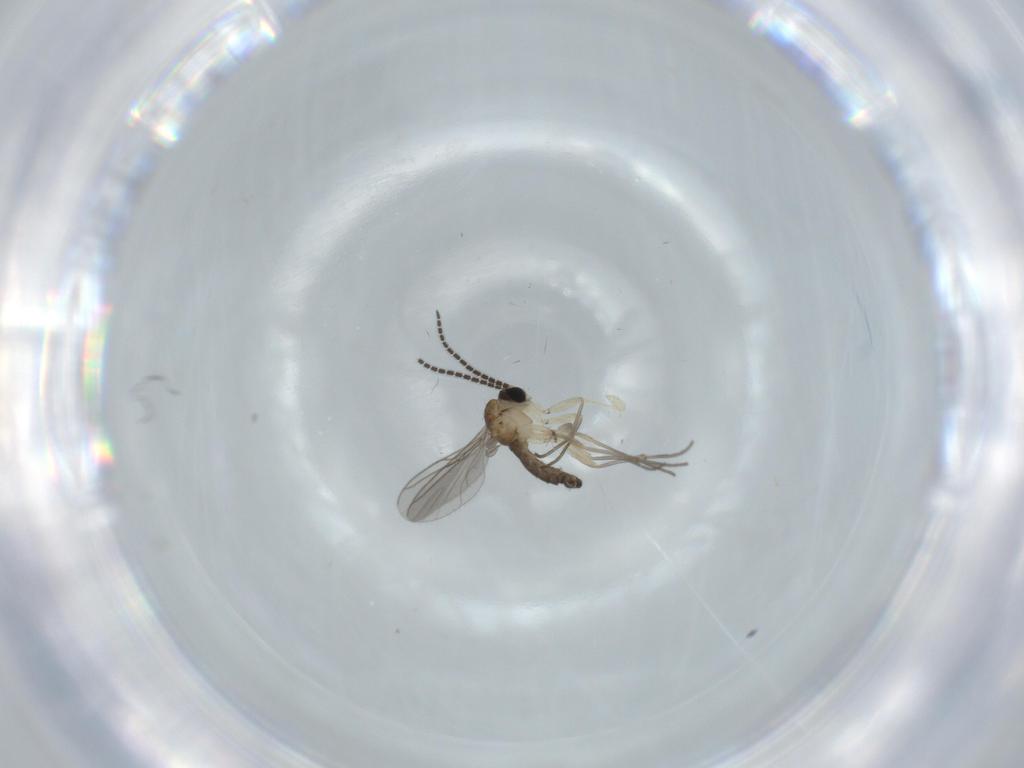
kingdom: Animalia
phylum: Arthropoda
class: Insecta
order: Diptera
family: Sciaridae
